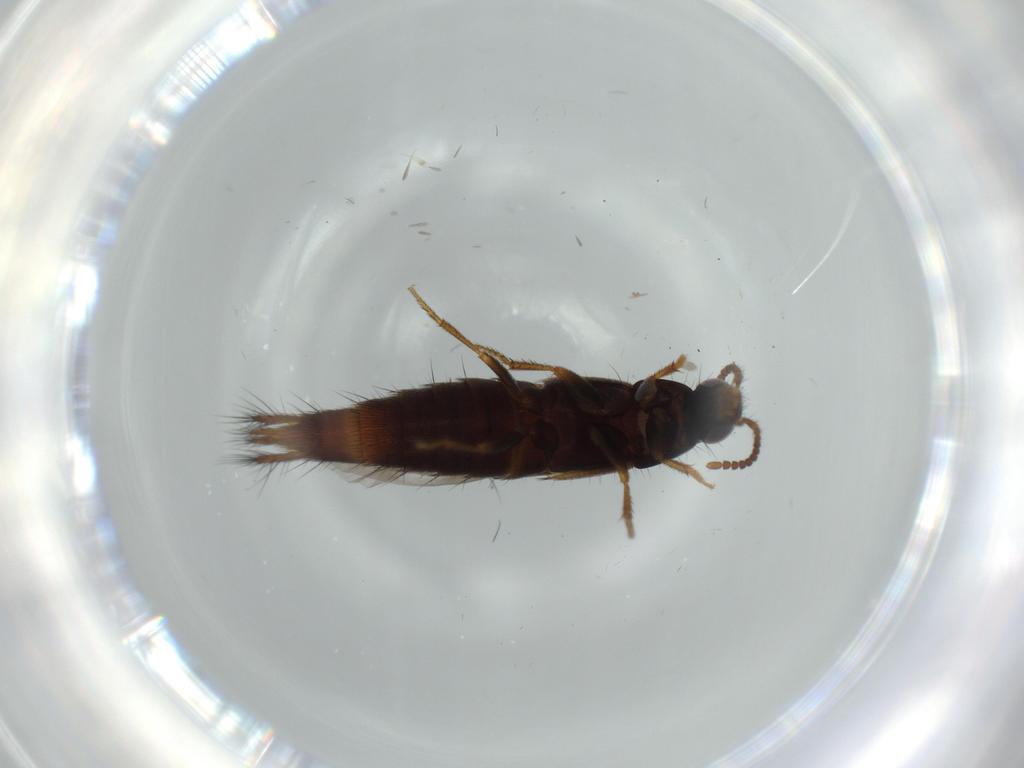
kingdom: Animalia
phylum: Arthropoda
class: Insecta
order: Coleoptera
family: Staphylinidae
